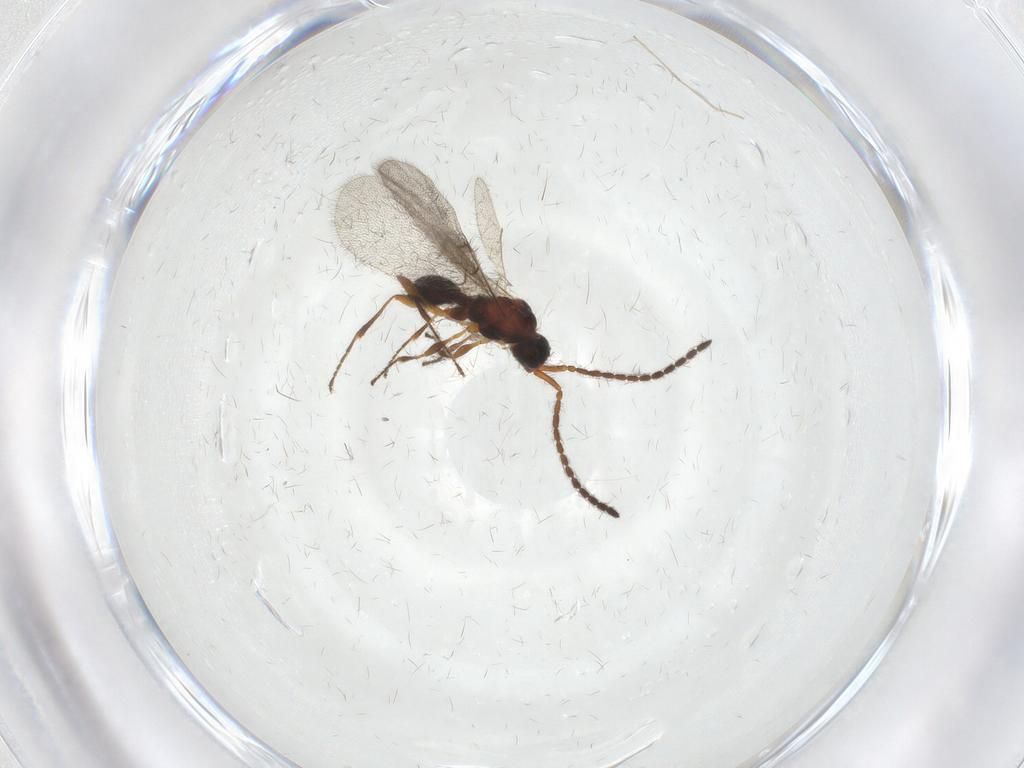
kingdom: Animalia
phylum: Arthropoda
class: Insecta
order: Hymenoptera
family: Diapriidae
